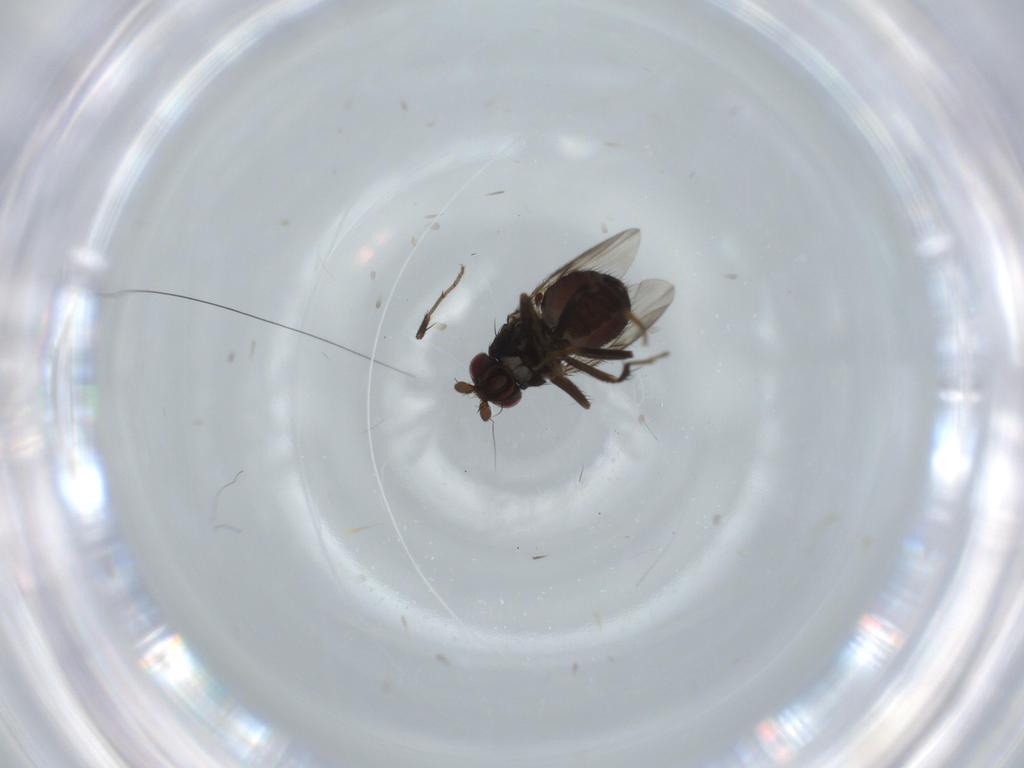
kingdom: Animalia
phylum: Arthropoda
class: Insecta
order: Diptera
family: Sphaeroceridae
